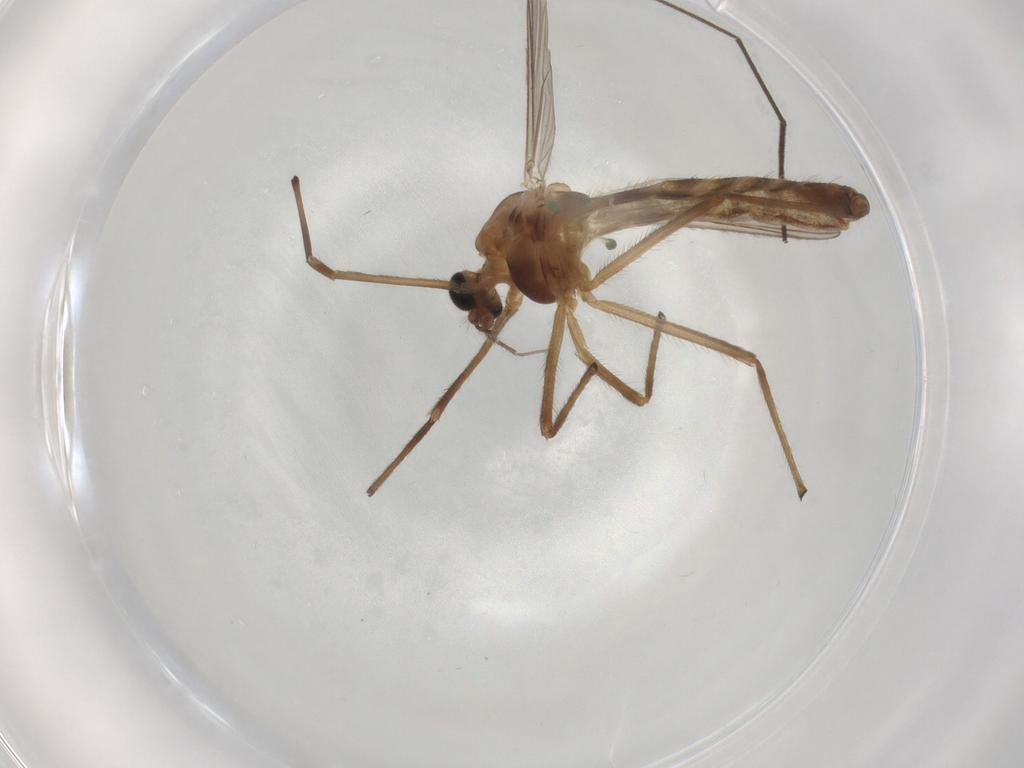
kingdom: Animalia
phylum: Arthropoda
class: Insecta
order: Diptera
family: Chironomidae
